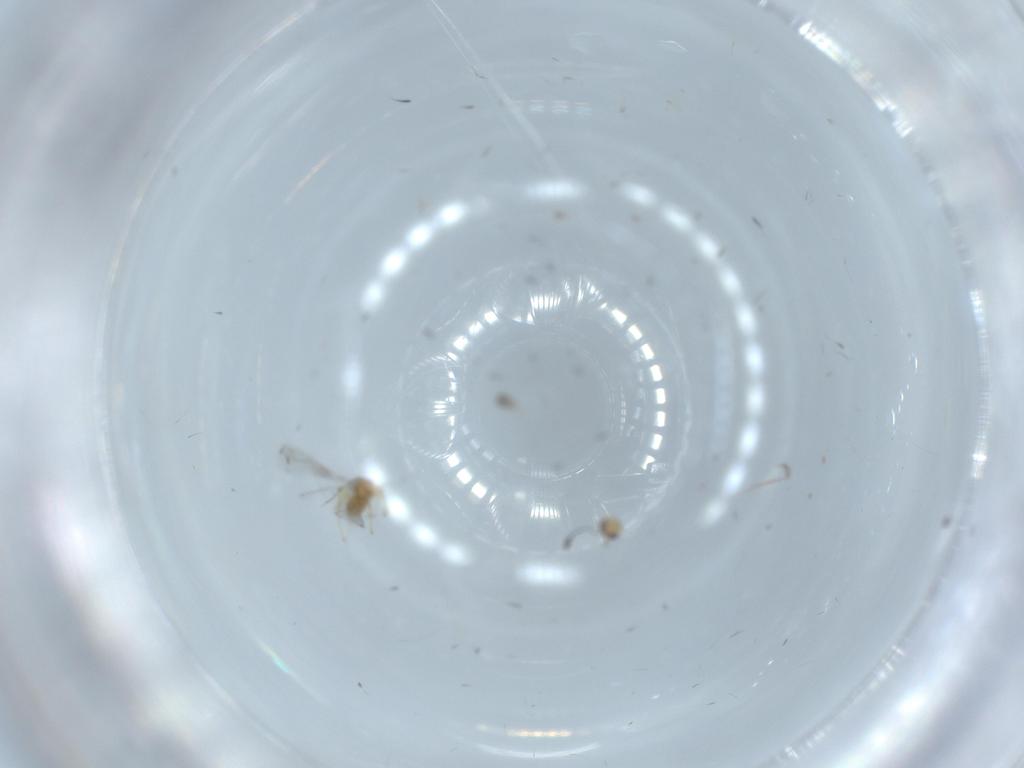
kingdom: Animalia
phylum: Arthropoda
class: Insecta
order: Hymenoptera
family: Mymaridae
